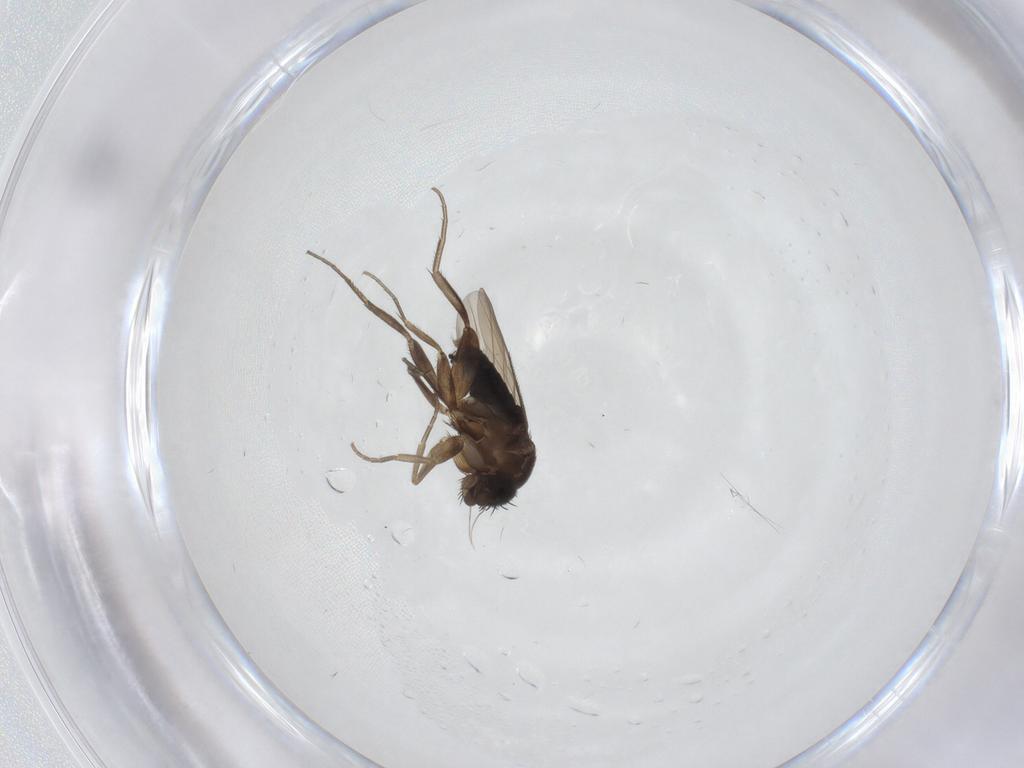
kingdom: Animalia
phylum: Arthropoda
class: Insecta
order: Diptera
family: Phoridae
